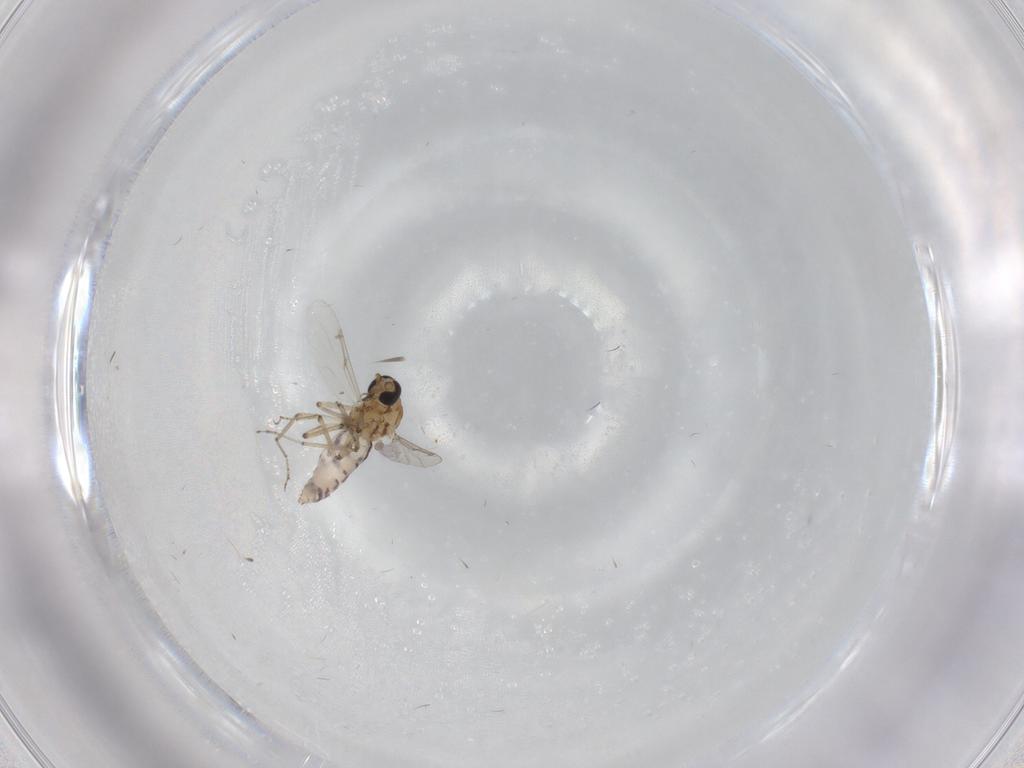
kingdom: Animalia
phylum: Arthropoda
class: Insecta
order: Diptera
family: Ceratopogonidae
